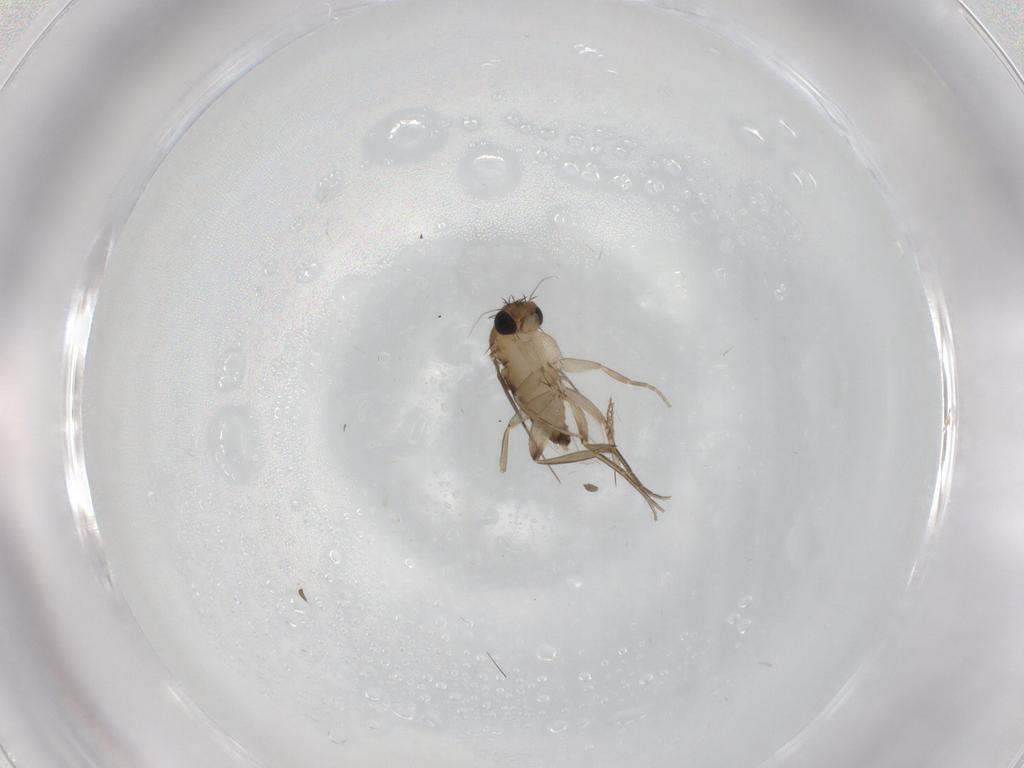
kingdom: Animalia
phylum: Arthropoda
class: Insecta
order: Diptera
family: Phoridae
